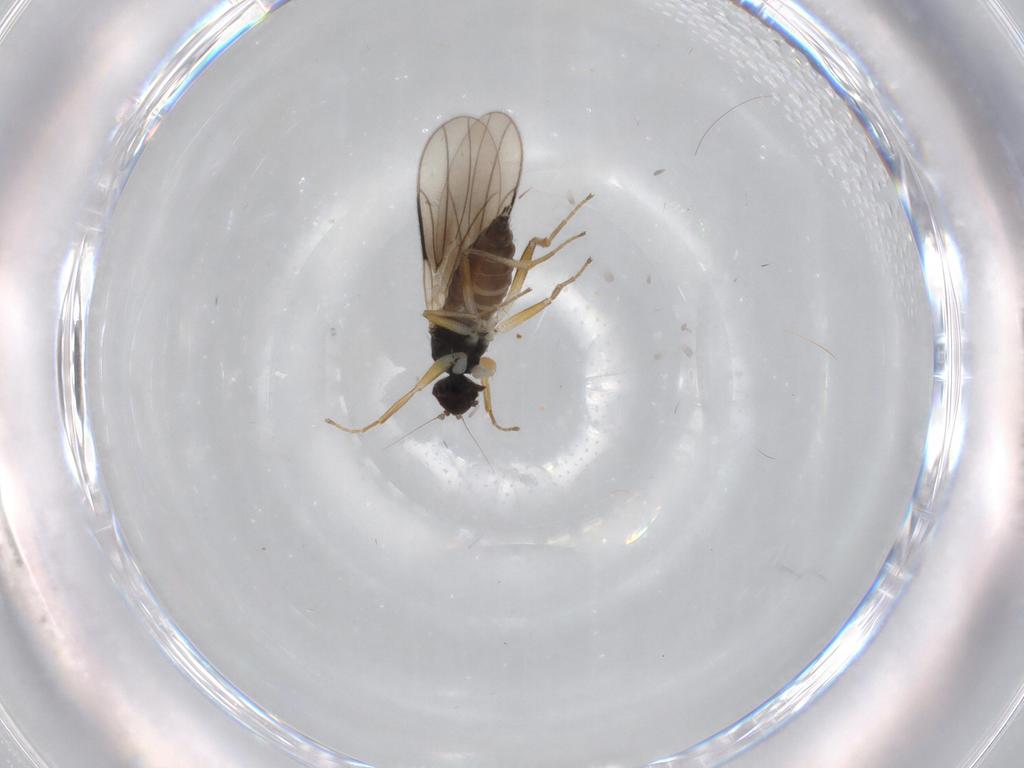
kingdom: Animalia
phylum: Arthropoda
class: Insecta
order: Diptera
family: Hybotidae
